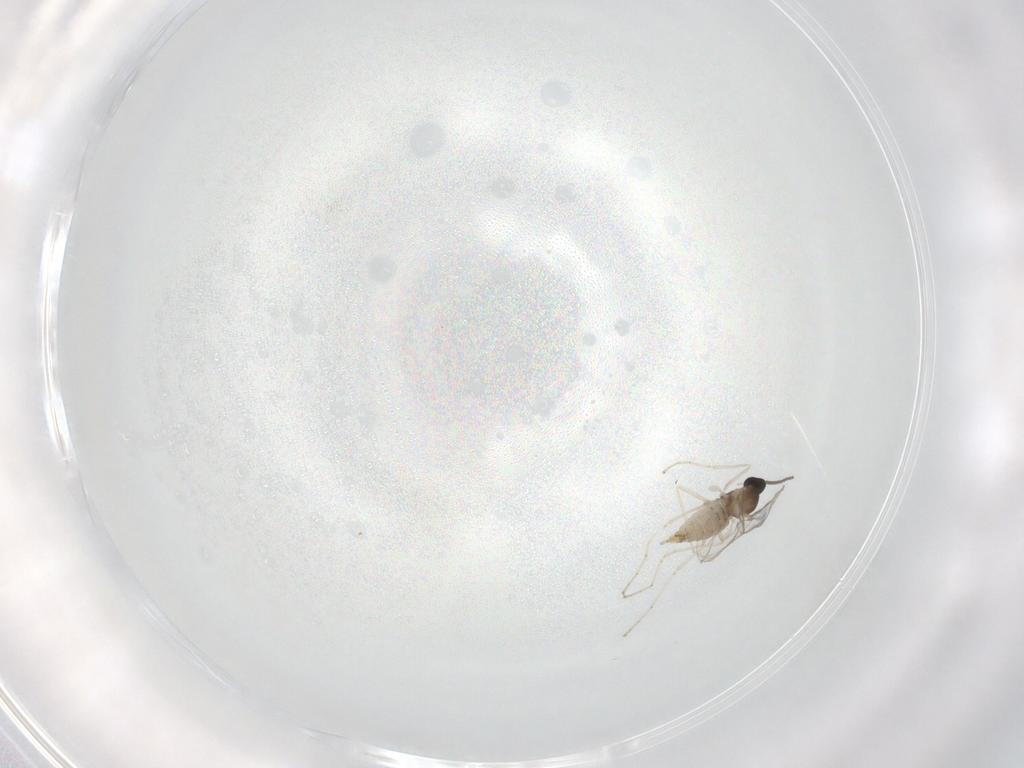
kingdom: Animalia
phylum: Arthropoda
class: Insecta
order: Diptera
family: Cecidomyiidae
